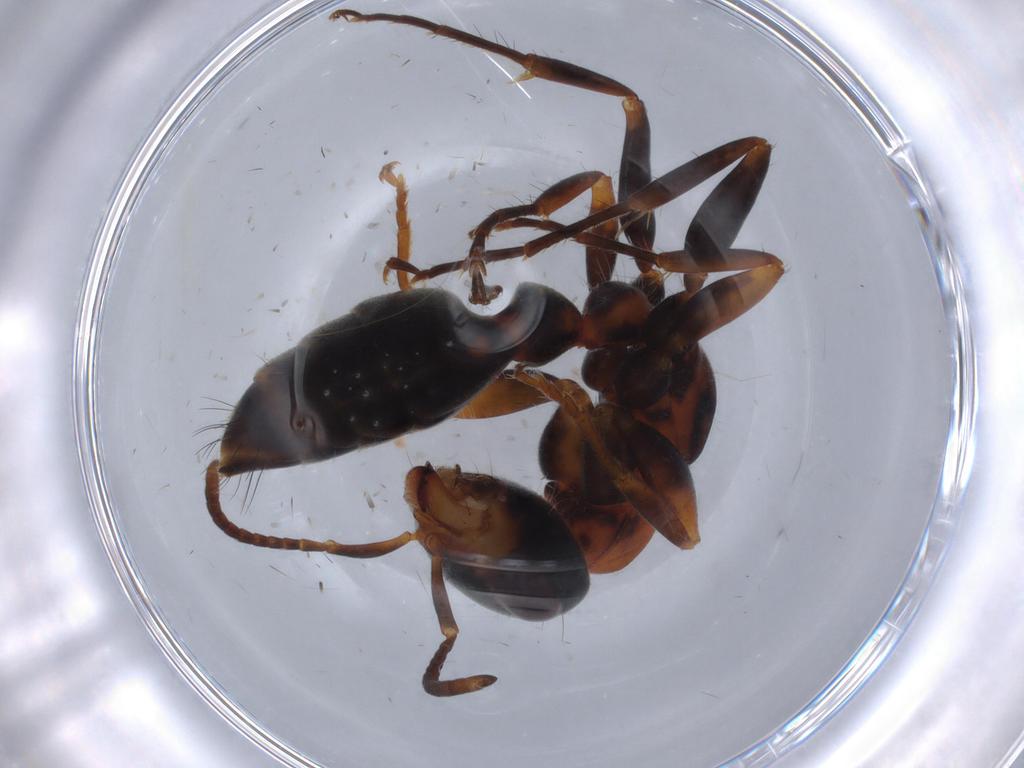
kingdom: Animalia
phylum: Arthropoda
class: Insecta
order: Hymenoptera
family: Formicidae
